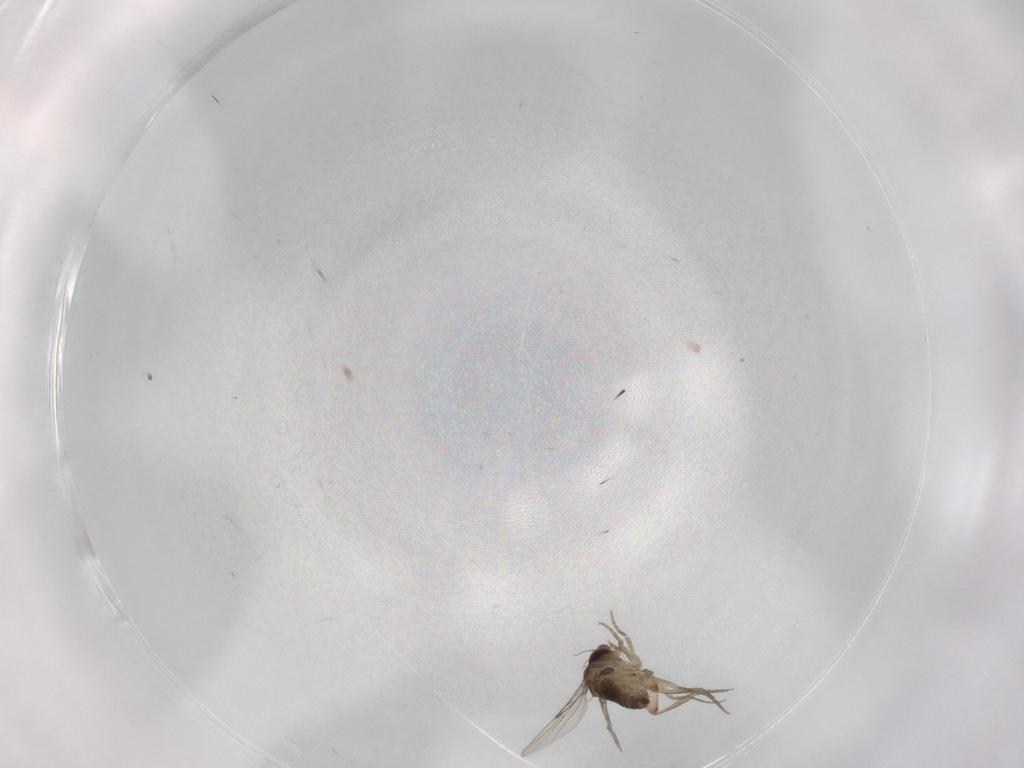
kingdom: Animalia
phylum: Arthropoda
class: Insecta
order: Diptera
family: Phoridae
